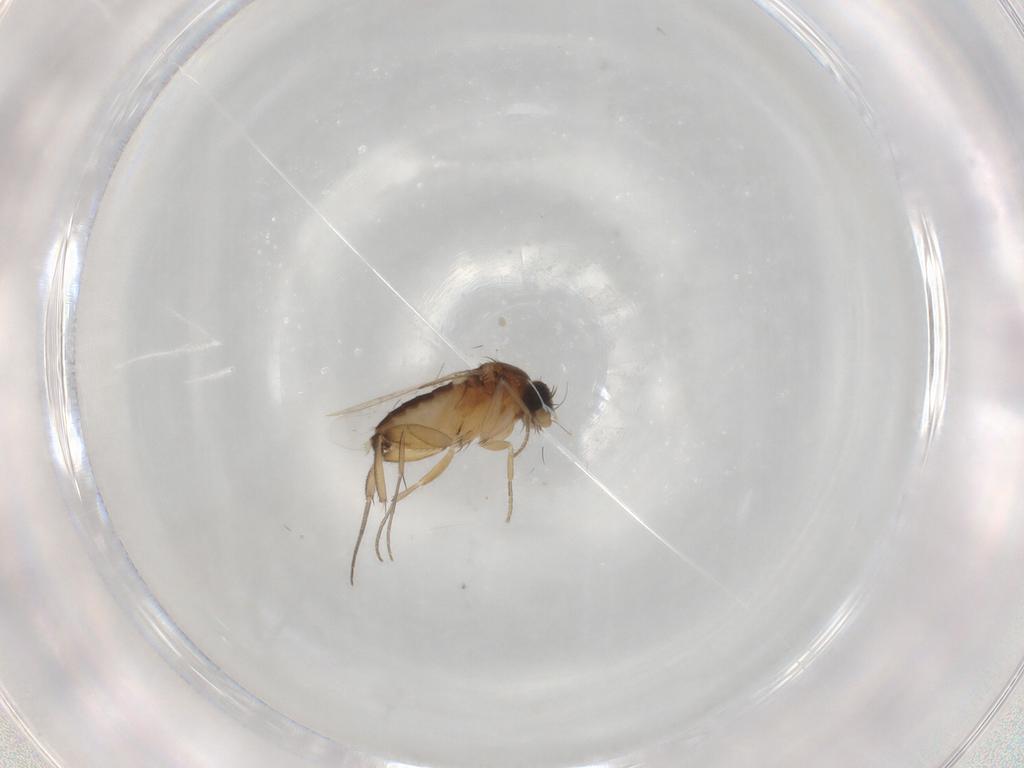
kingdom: Animalia
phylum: Arthropoda
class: Insecta
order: Diptera
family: Phoridae
